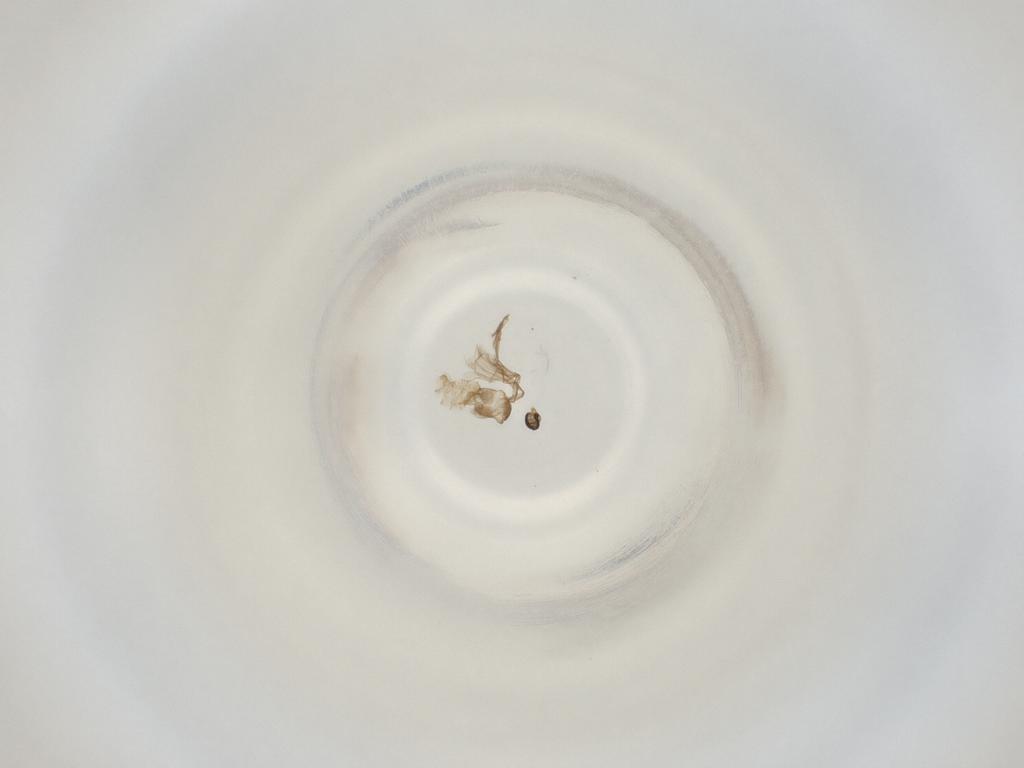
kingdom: Animalia
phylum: Arthropoda
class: Insecta
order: Diptera
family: Cecidomyiidae
